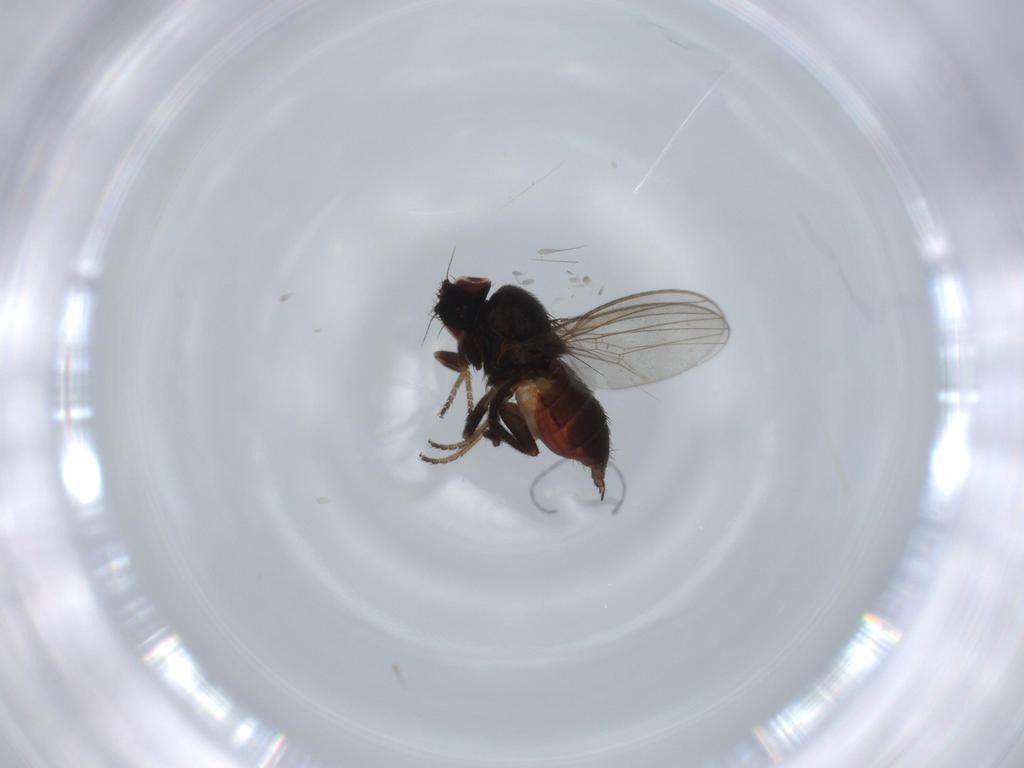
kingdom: Animalia
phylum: Arthropoda
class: Insecta
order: Diptera
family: Milichiidae
